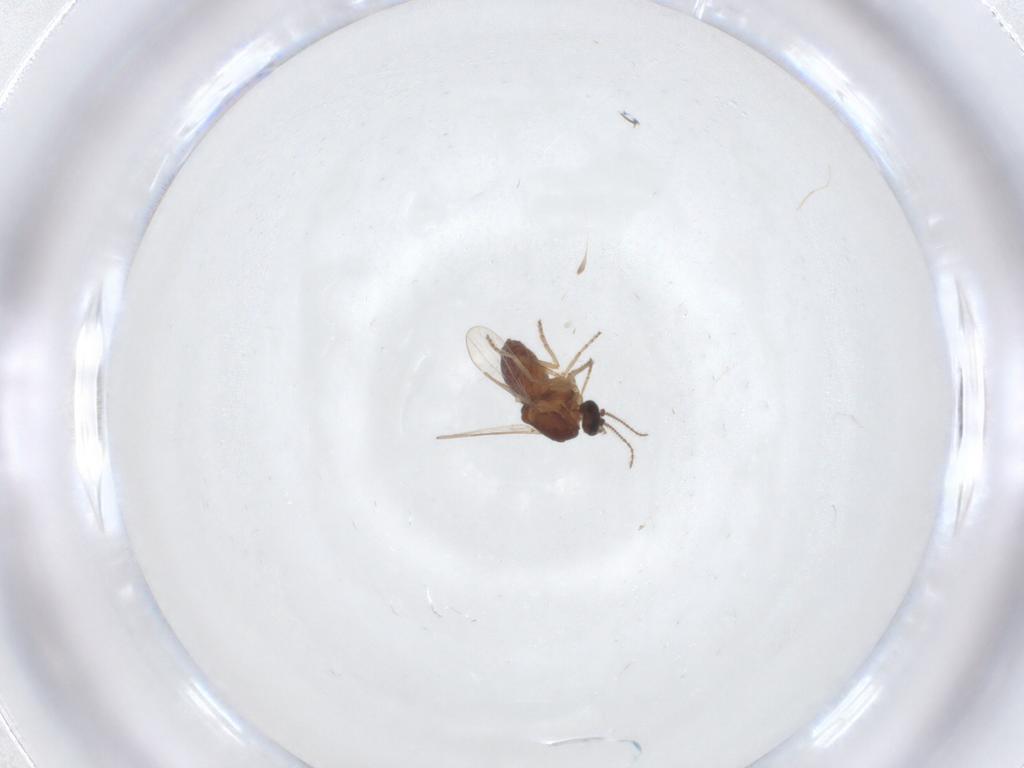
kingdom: Animalia
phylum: Arthropoda
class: Insecta
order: Diptera
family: Ceratopogonidae
